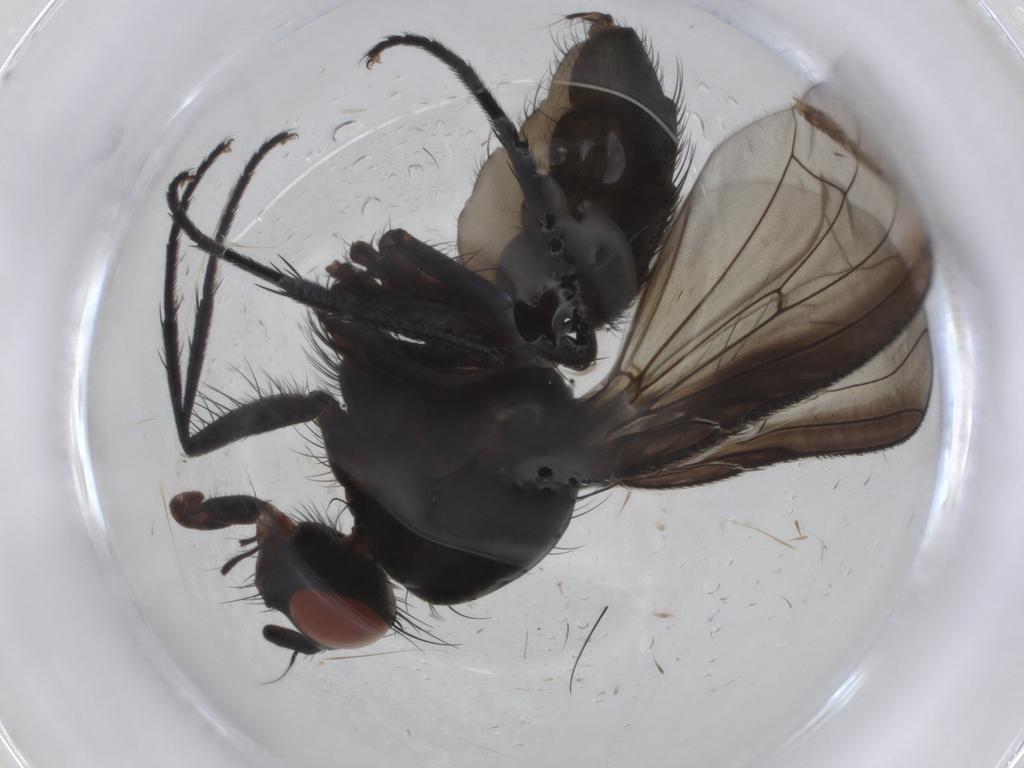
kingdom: Animalia
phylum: Arthropoda
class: Insecta
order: Diptera
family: Anthomyiidae
